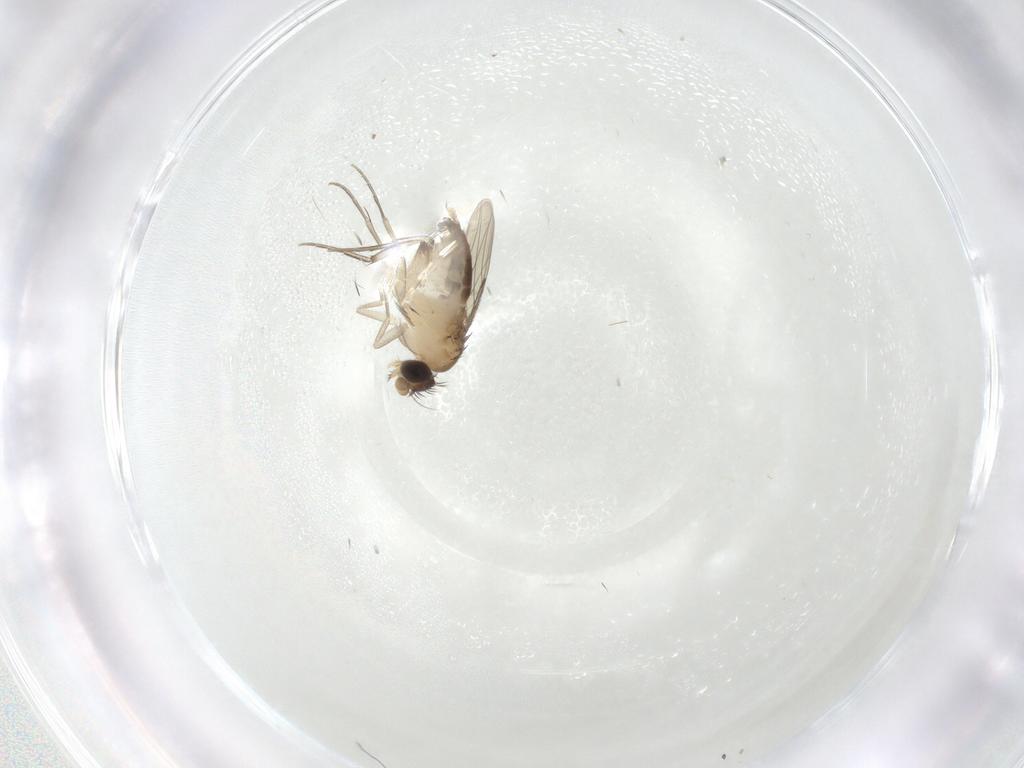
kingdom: Animalia
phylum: Arthropoda
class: Insecta
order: Diptera
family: Phoridae
